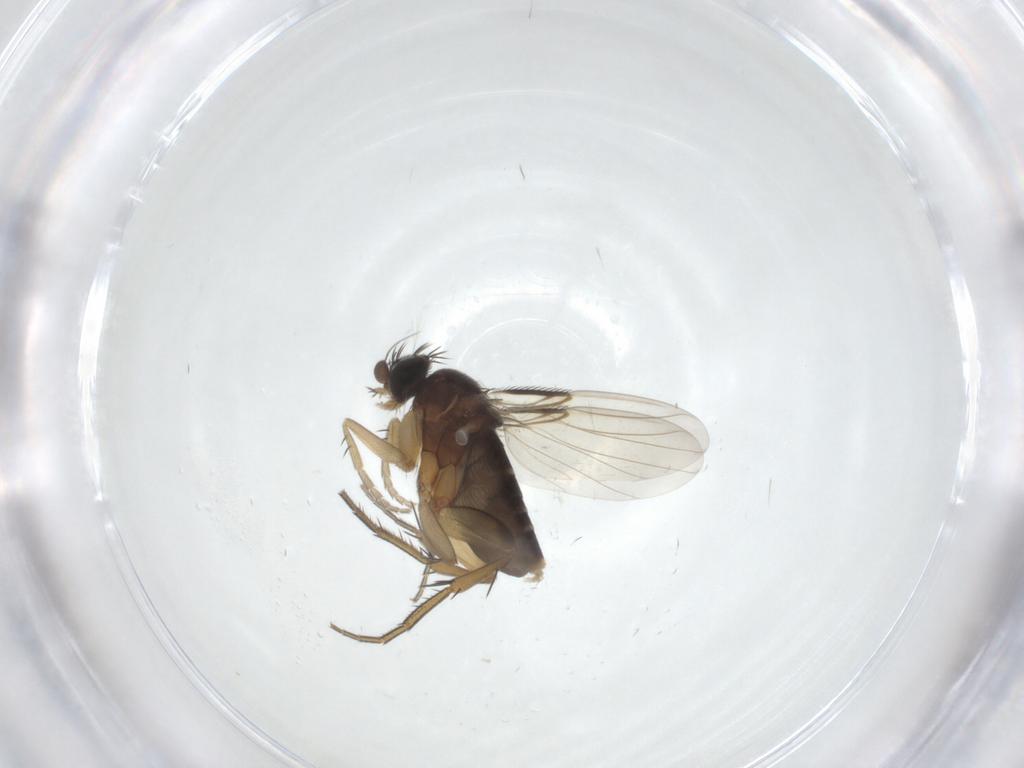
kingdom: Animalia
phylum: Arthropoda
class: Insecta
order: Diptera
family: Phoridae
